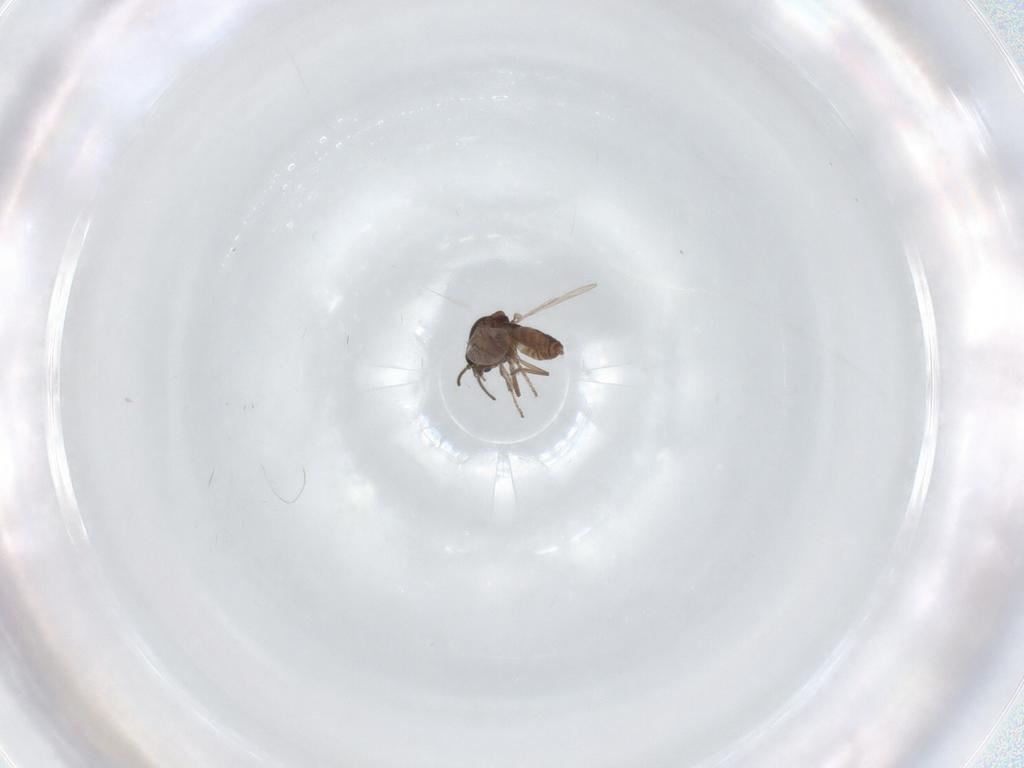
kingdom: Animalia
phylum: Arthropoda
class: Insecta
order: Diptera
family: Ceratopogonidae
